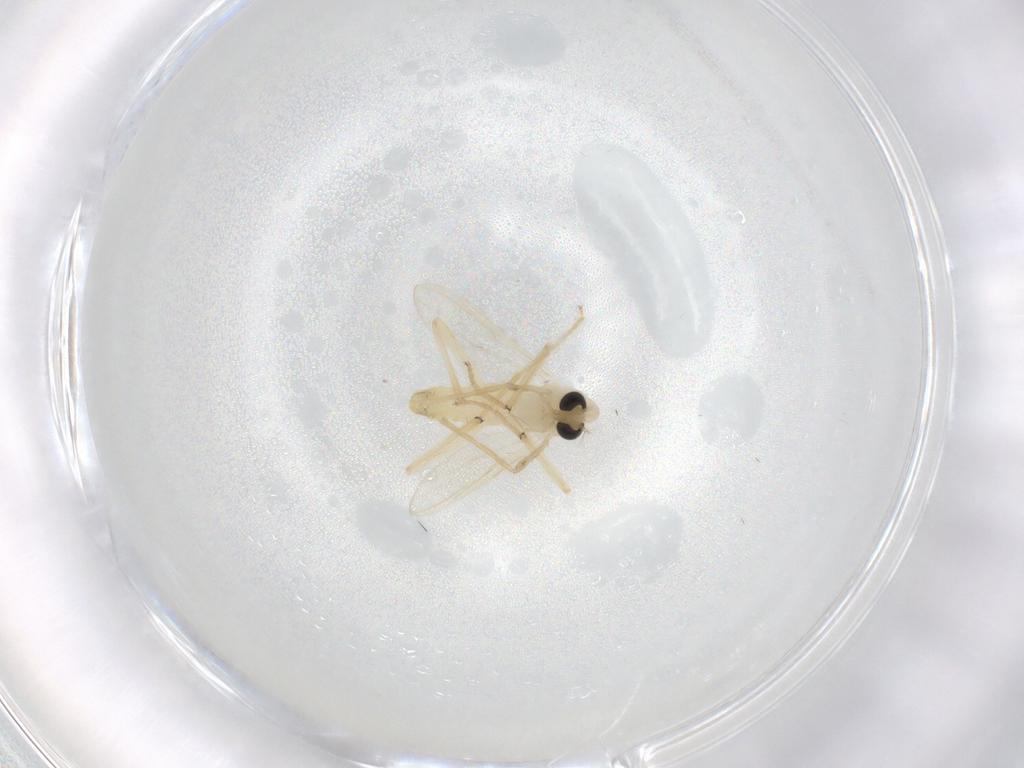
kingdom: Animalia
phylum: Arthropoda
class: Insecta
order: Diptera
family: Chironomidae
